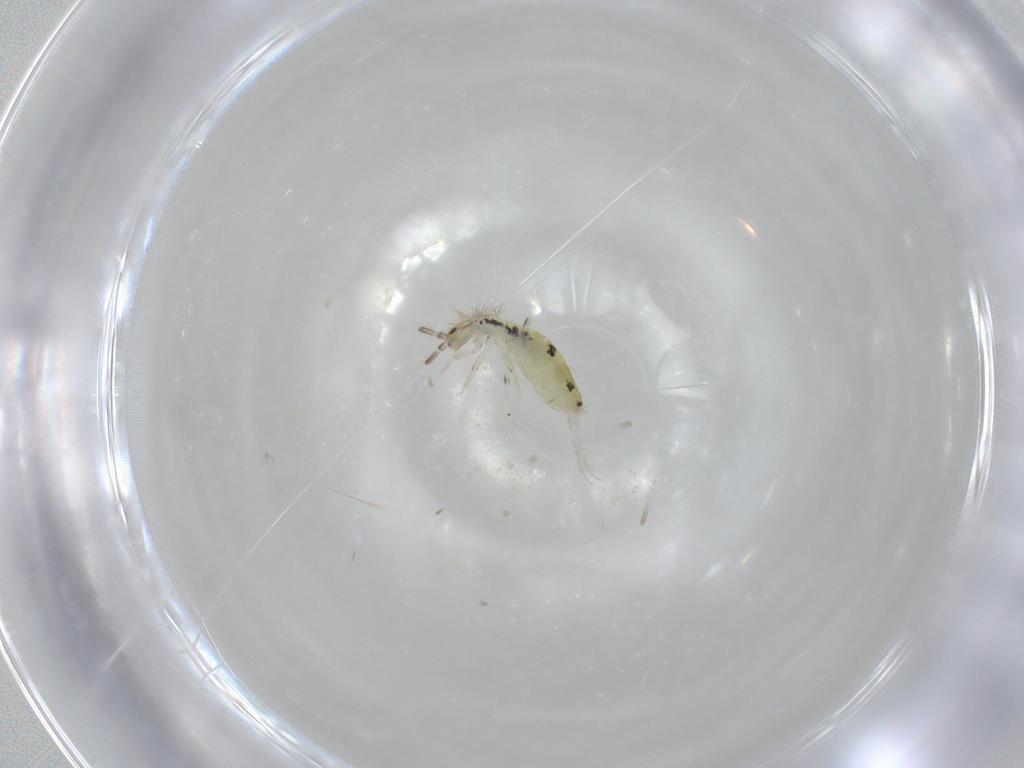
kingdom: Animalia
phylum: Arthropoda
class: Collembola
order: Entomobryomorpha
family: Entomobryidae
